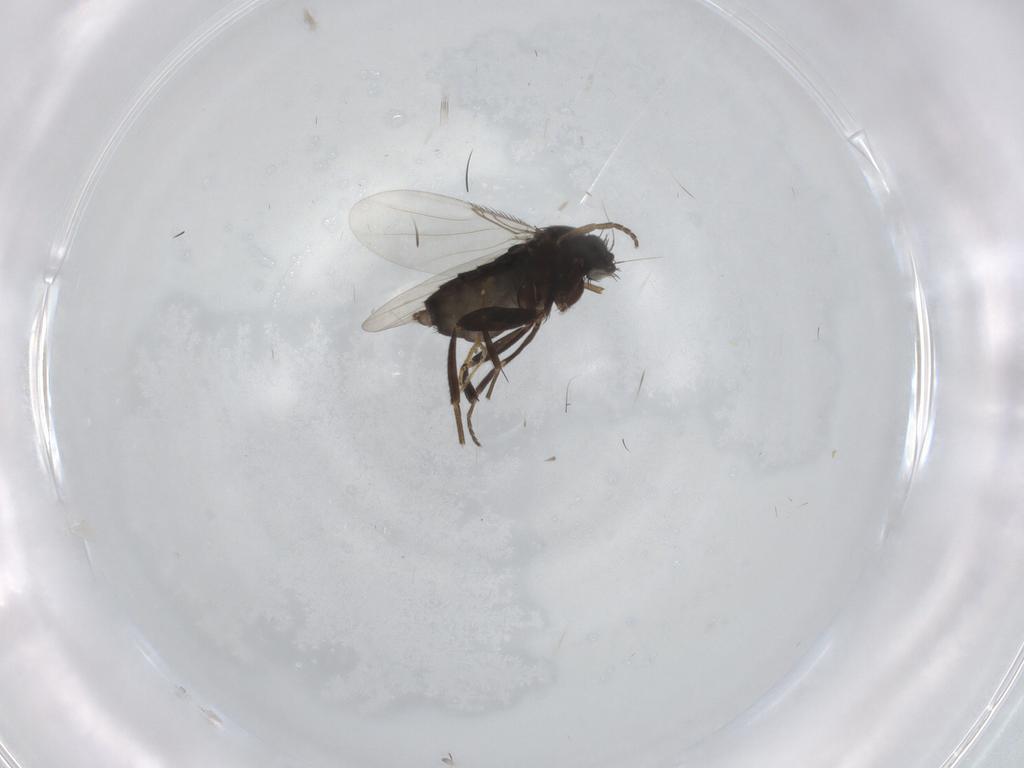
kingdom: Animalia
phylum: Arthropoda
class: Insecta
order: Diptera
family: Phoridae
